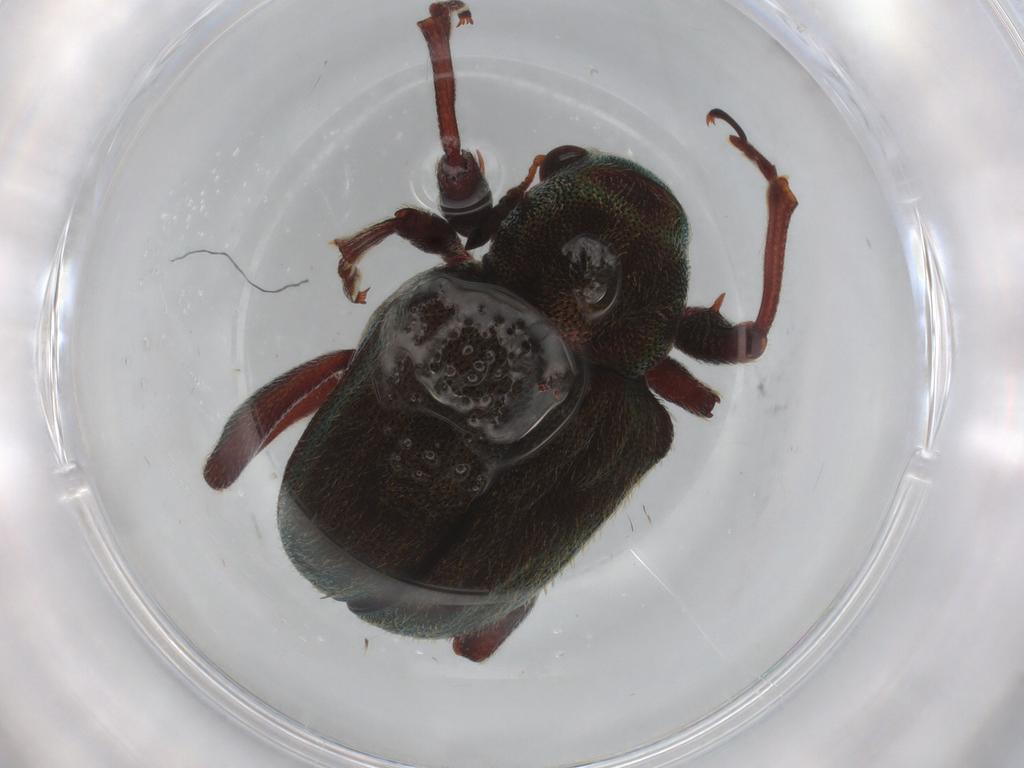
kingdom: Animalia
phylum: Arthropoda
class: Insecta
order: Coleoptera
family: Chrysomelidae
